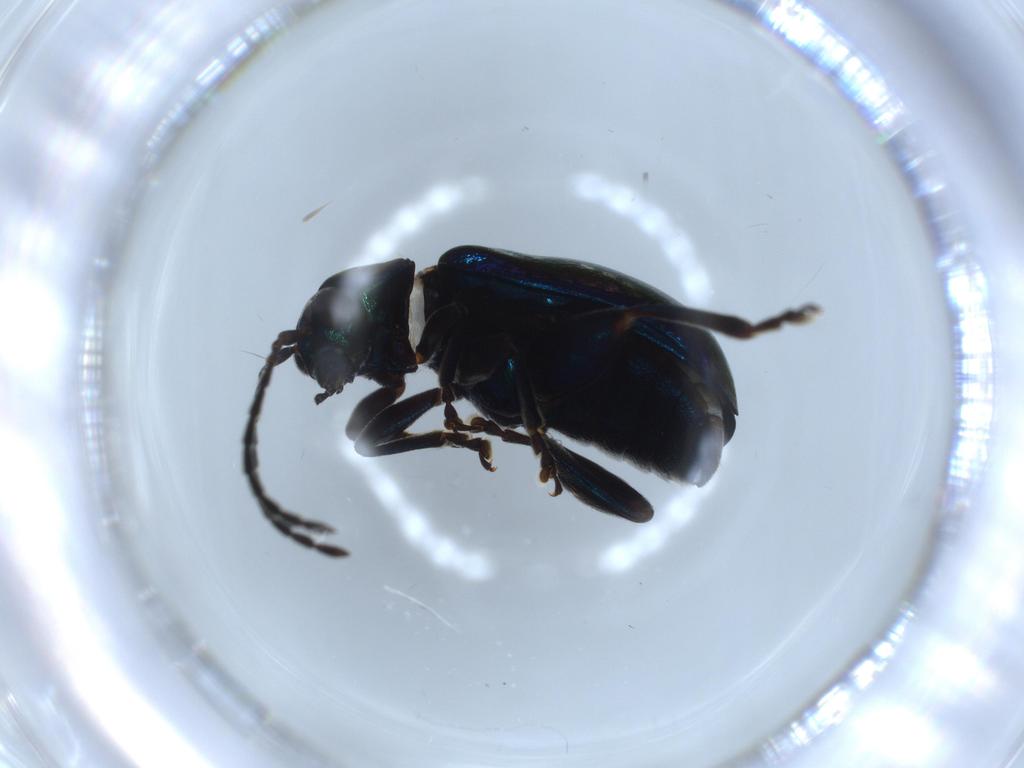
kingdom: Animalia
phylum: Arthropoda
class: Insecta
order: Coleoptera
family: Chrysomelidae
